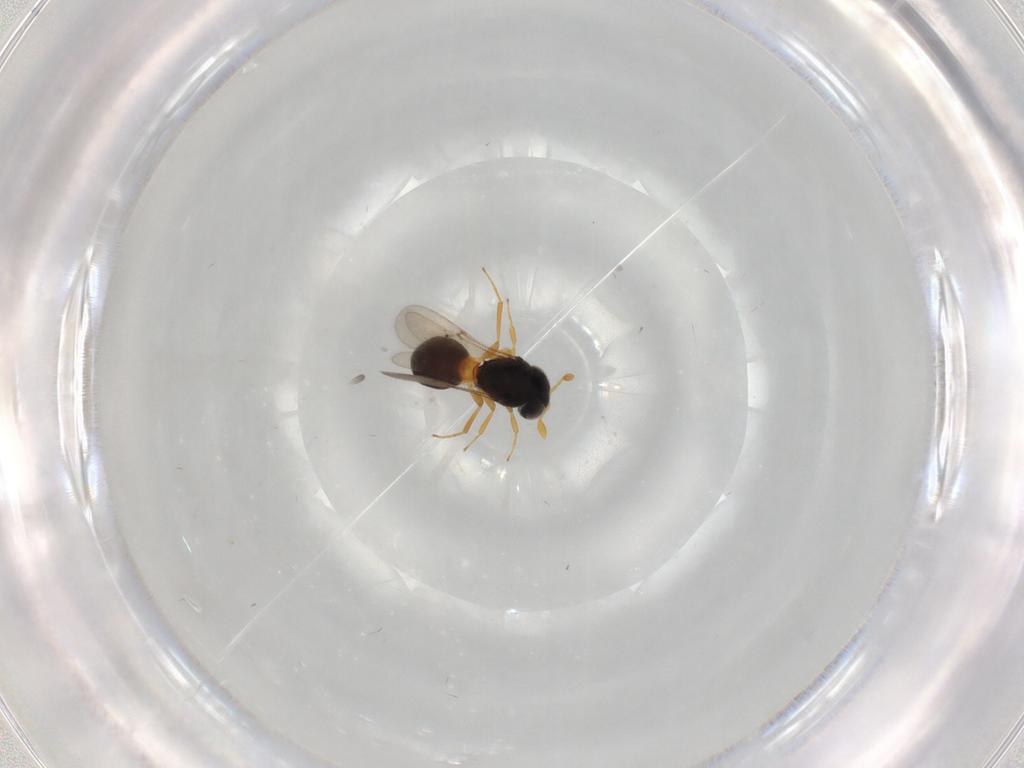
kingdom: Animalia
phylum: Arthropoda
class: Insecta
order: Hymenoptera
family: Scelionidae
